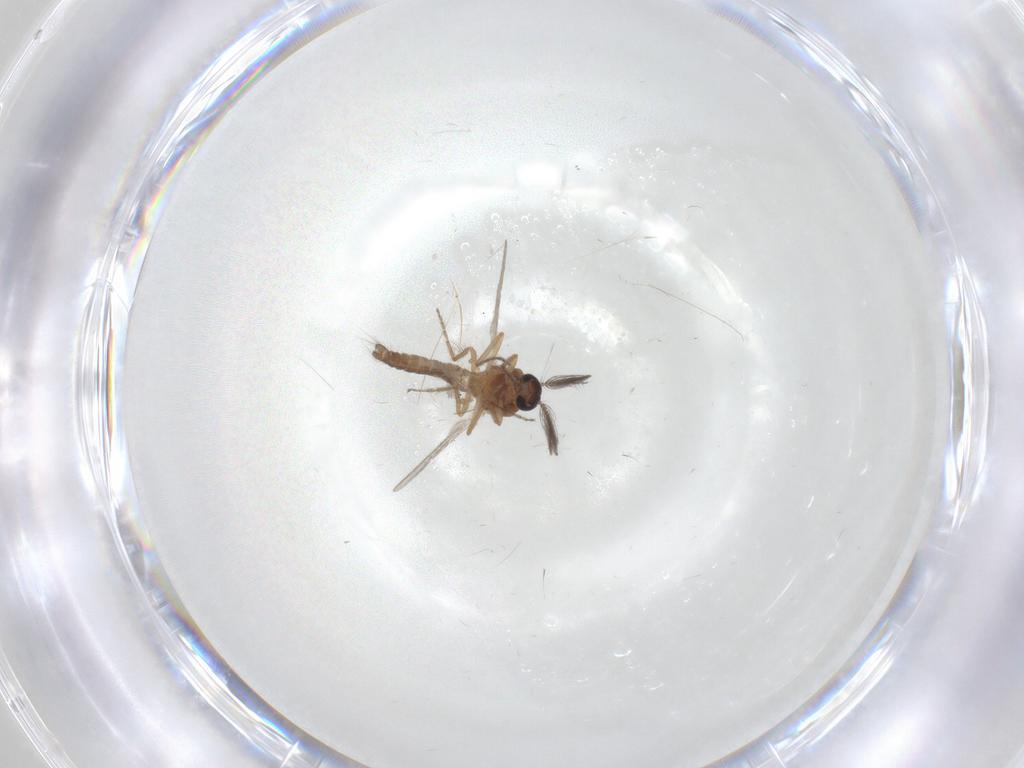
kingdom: Animalia
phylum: Arthropoda
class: Insecta
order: Diptera
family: Ceratopogonidae
